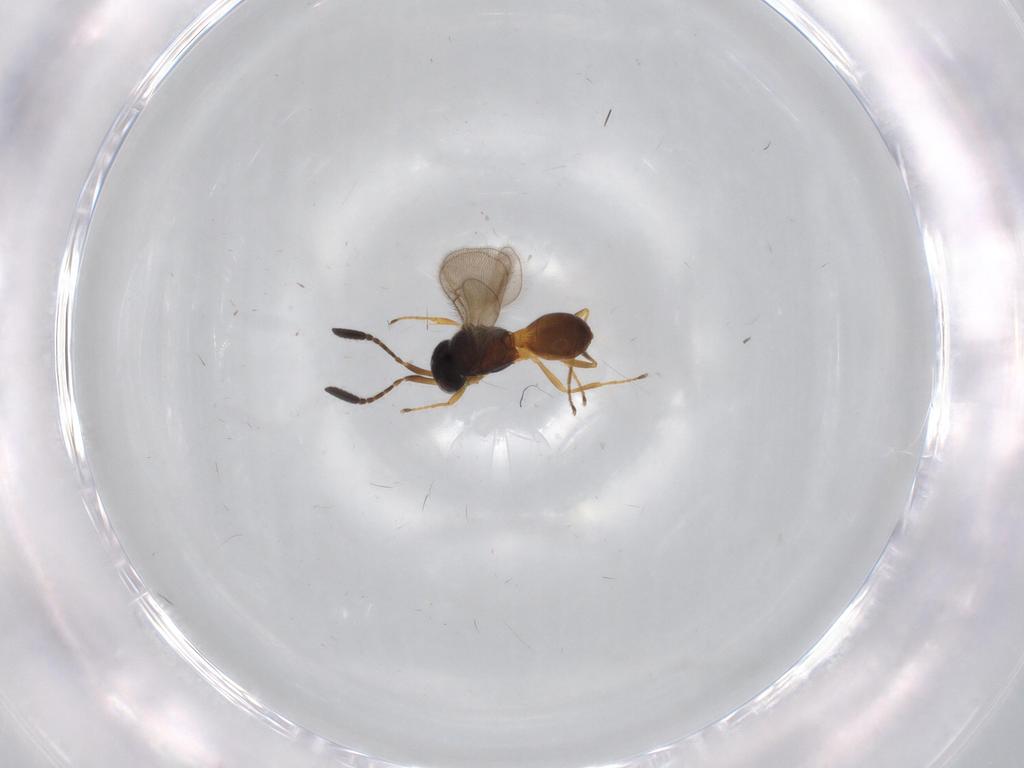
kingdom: Animalia
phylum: Arthropoda
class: Insecta
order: Hymenoptera
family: Scelionidae
